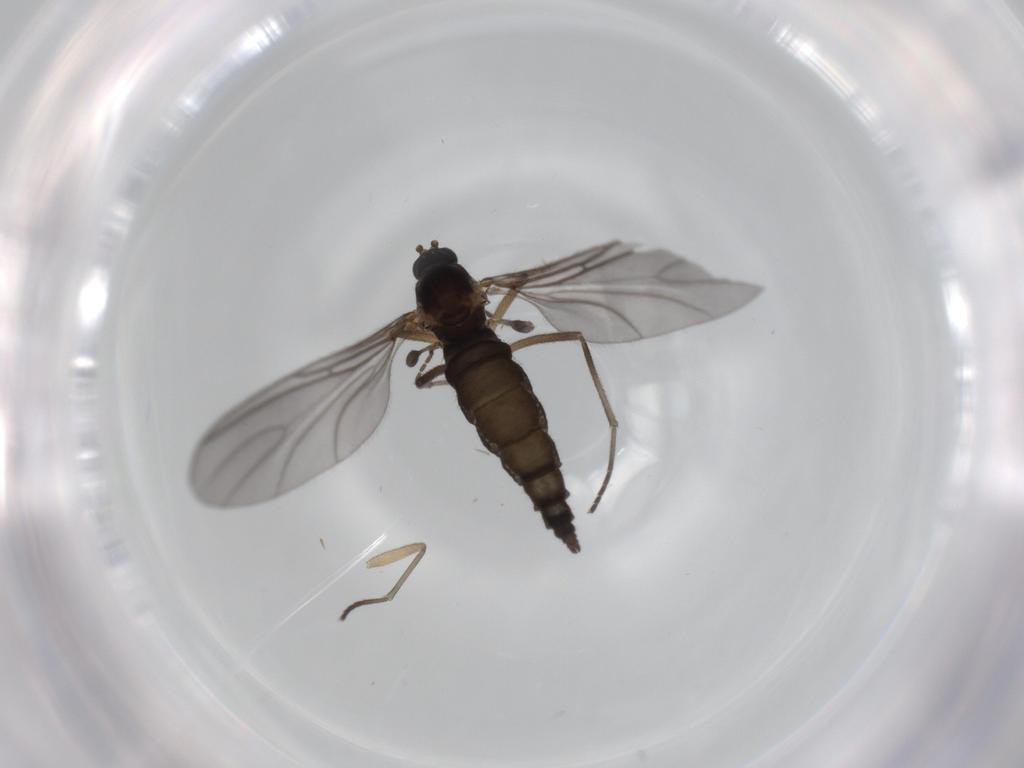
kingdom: Animalia
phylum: Arthropoda
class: Insecta
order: Diptera
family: Sciaridae
